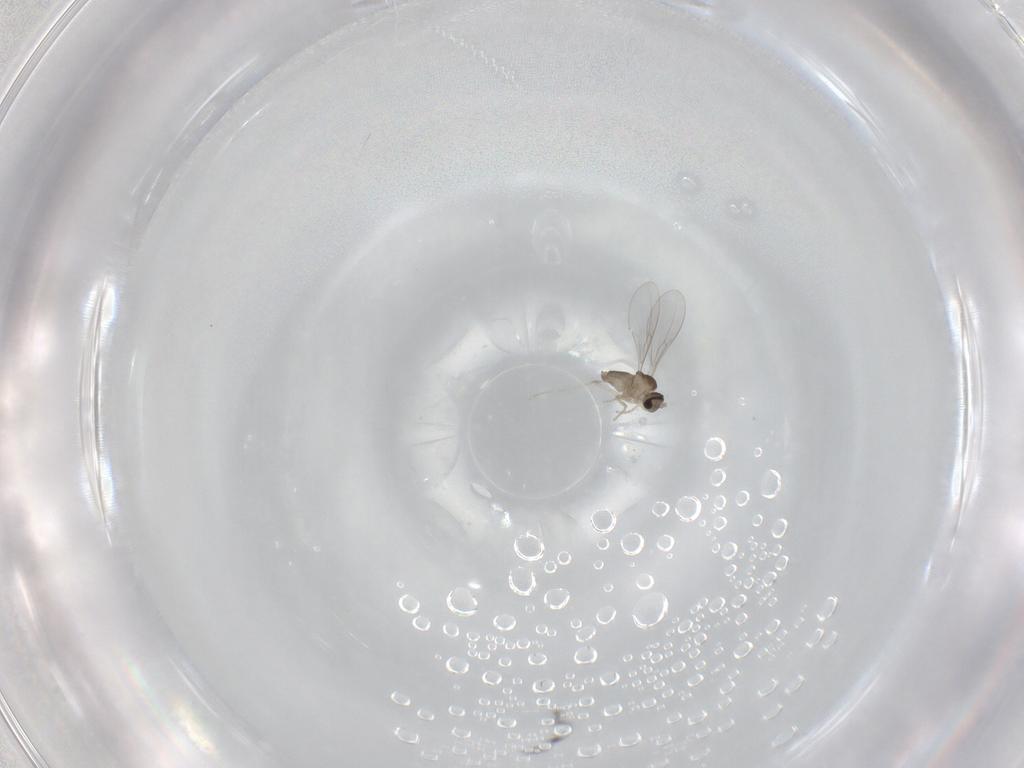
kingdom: Animalia
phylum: Arthropoda
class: Insecta
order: Diptera
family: Cecidomyiidae
